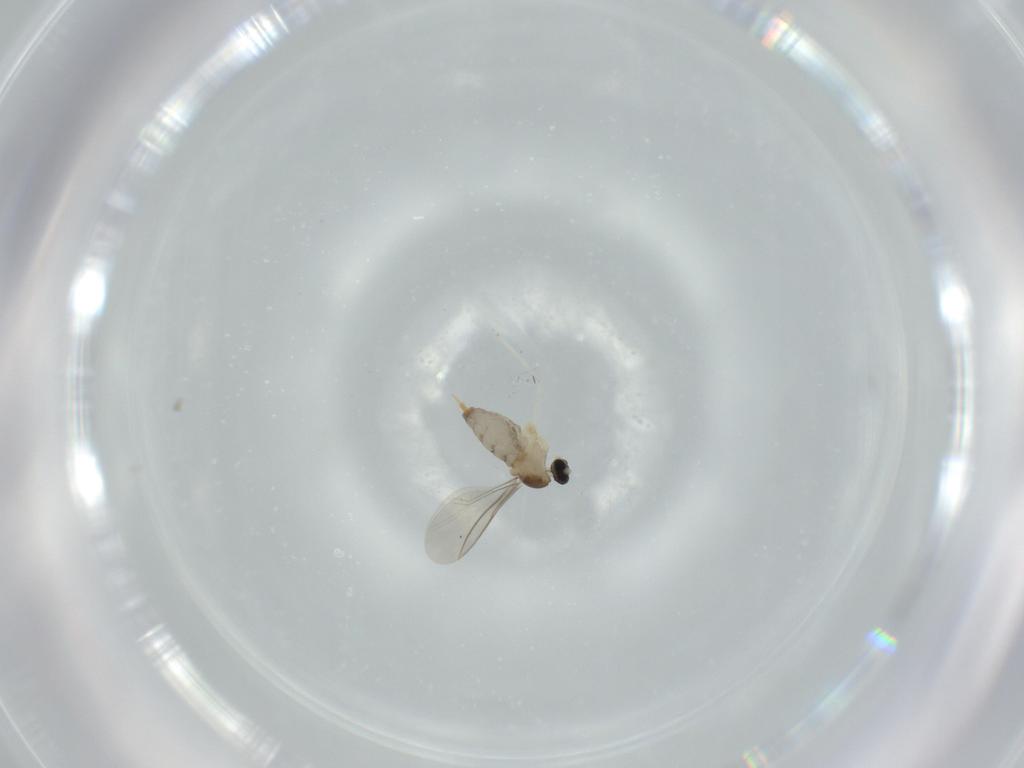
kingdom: Animalia
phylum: Arthropoda
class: Insecta
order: Diptera
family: Cecidomyiidae
